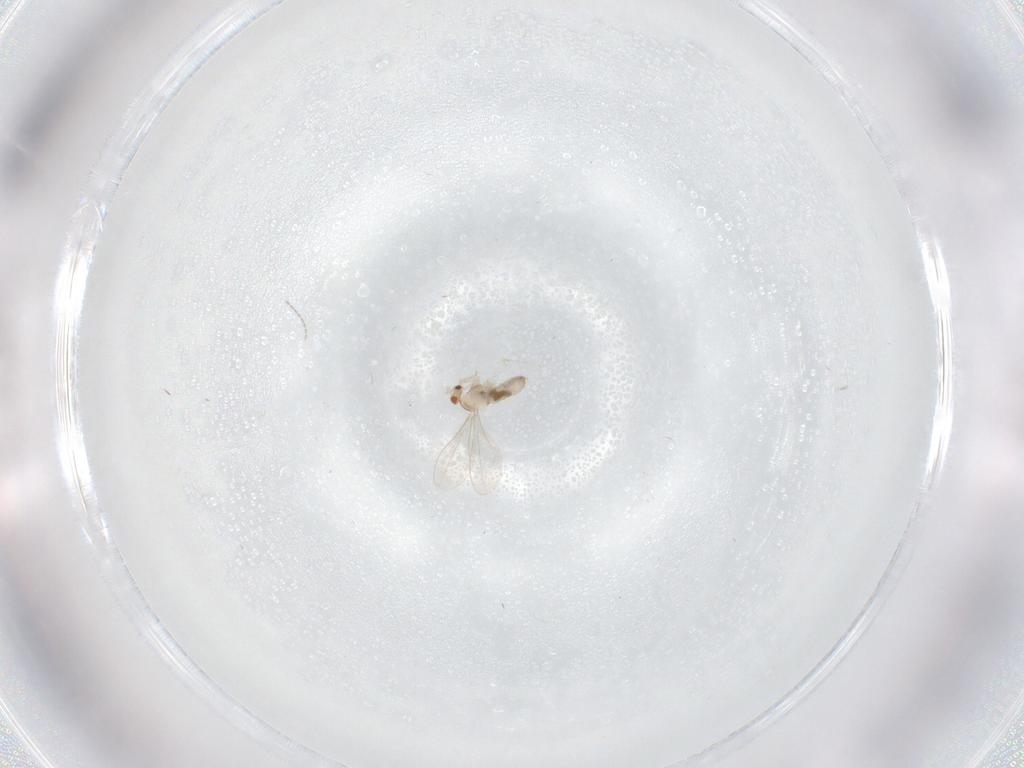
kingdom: Animalia
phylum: Arthropoda
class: Insecta
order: Diptera
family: Cecidomyiidae
